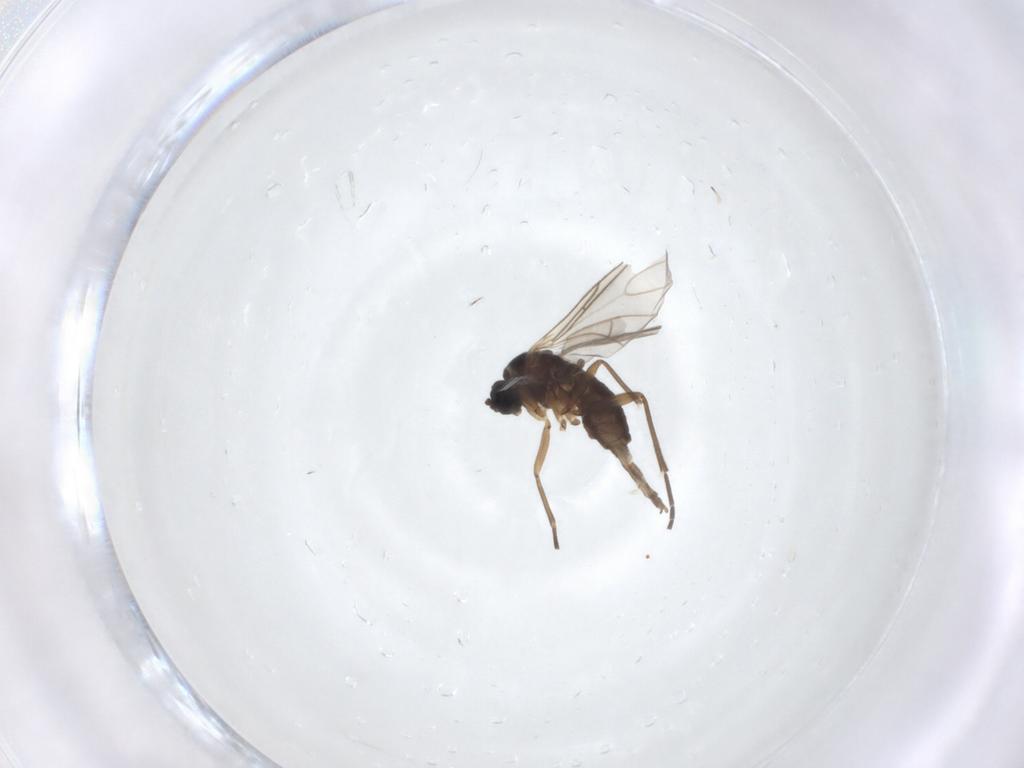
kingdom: Animalia
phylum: Arthropoda
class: Insecta
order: Diptera
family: Sciaridae
